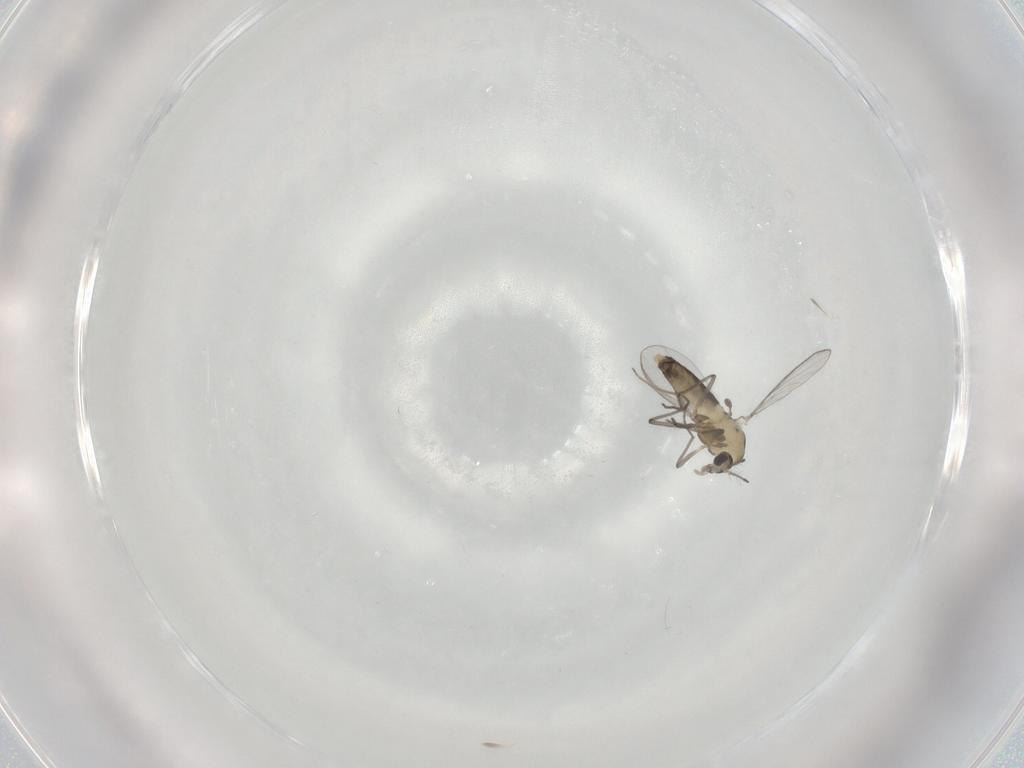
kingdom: Animalia
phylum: Arthropoda
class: Insecta
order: Diptera
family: Chironomidae
